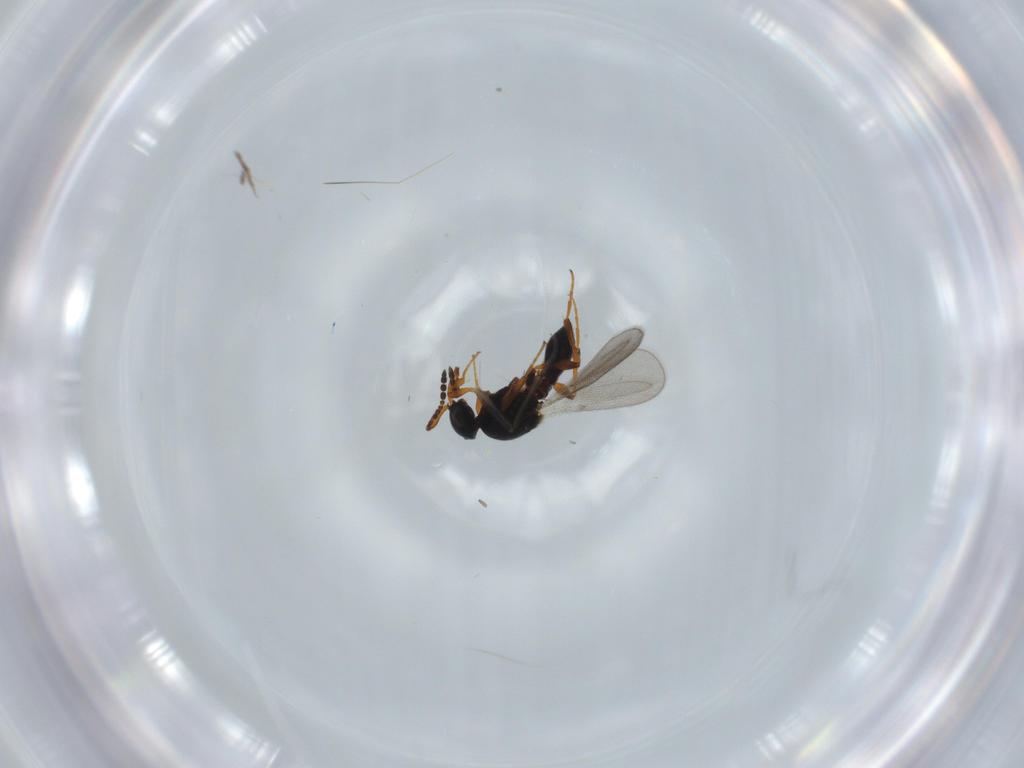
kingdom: Animalia
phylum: Arthropoda
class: Insecta
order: Hymenoptera
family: Platygastridae
